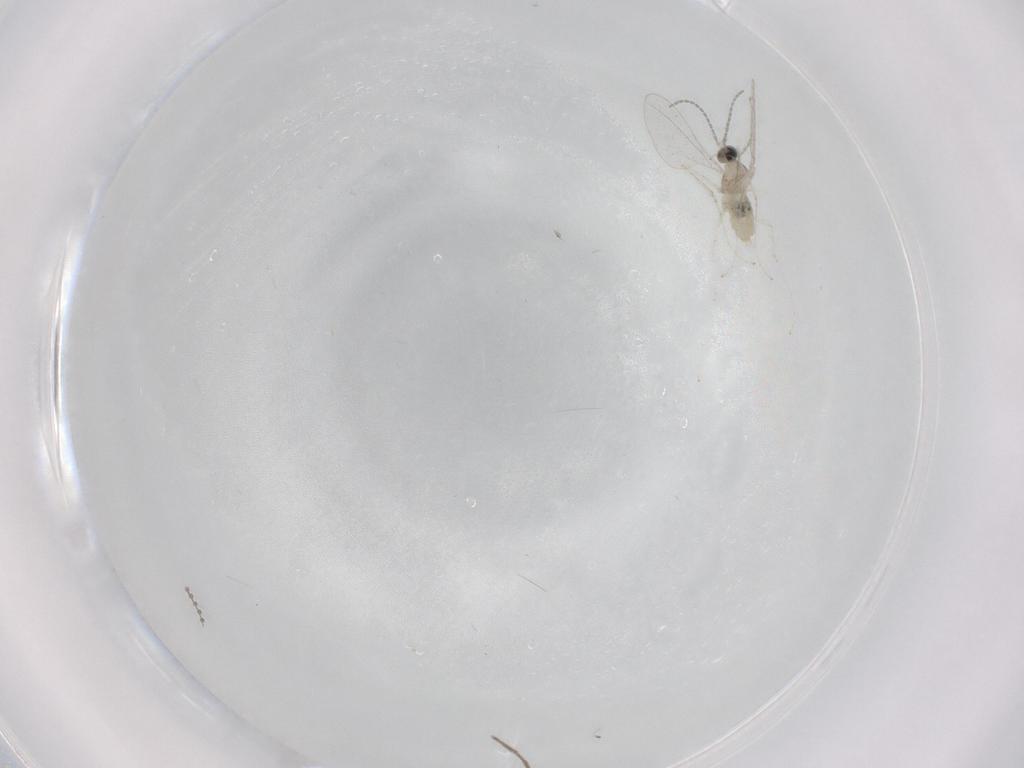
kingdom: Animalia
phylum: Arthropoda
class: Insecta
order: Diptera
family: Cecidomyiidae
